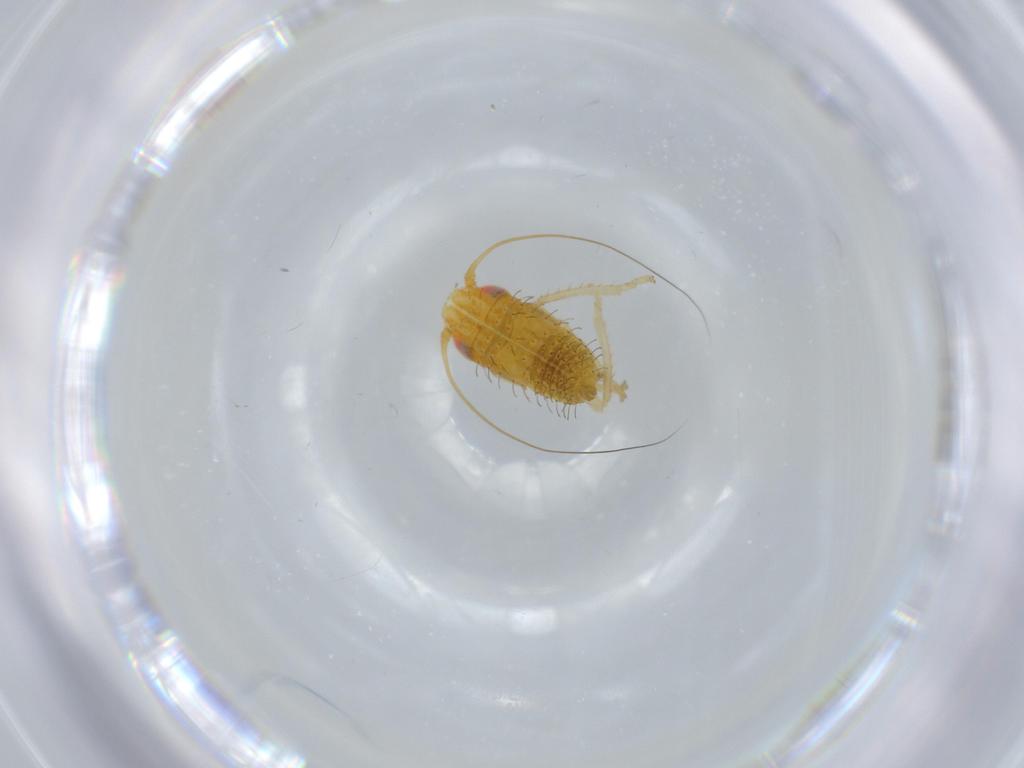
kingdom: Animalia
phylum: Arthropoda
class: Insecta
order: Hemiptera
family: Cicadellidae
